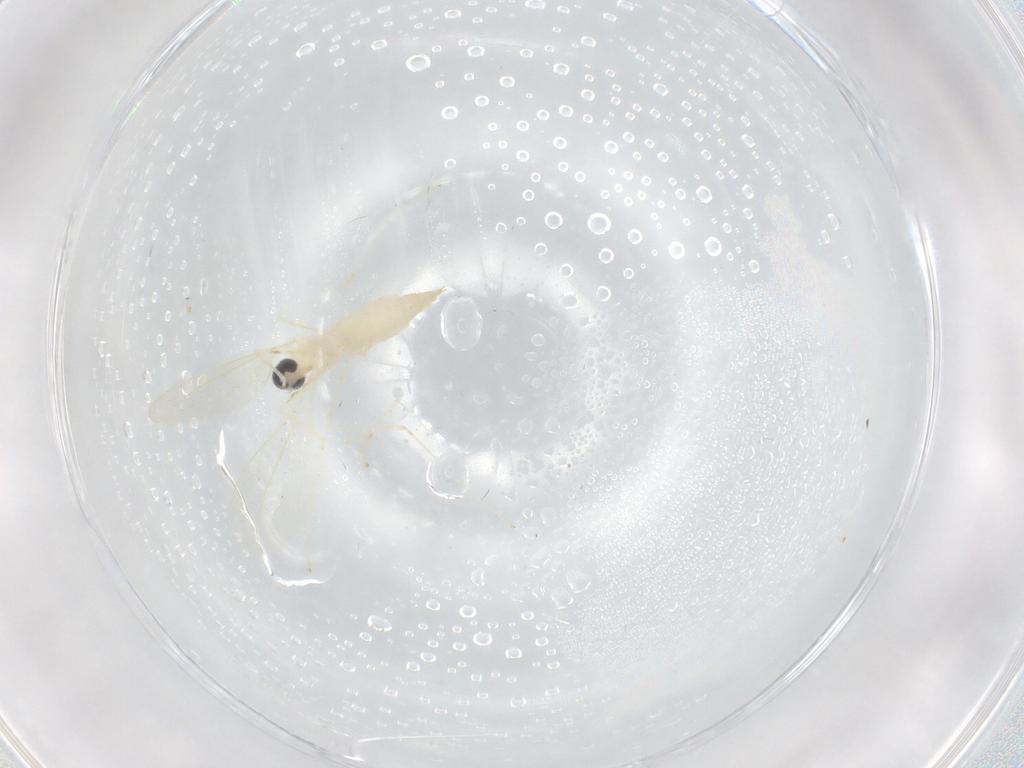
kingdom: Animalia
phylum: Arthropoda
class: Insecta
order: Diptera
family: Cecidomyiidae
